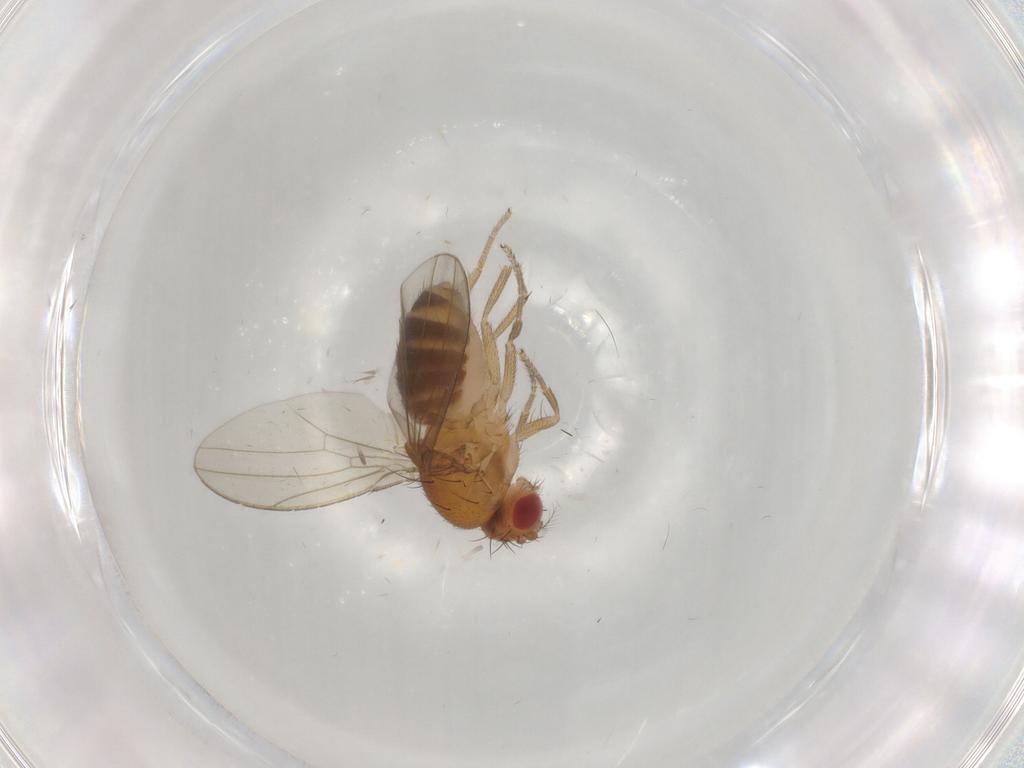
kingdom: Animalia
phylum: Arthropoda
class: Insecta
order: Diptera
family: Drosophilidae
